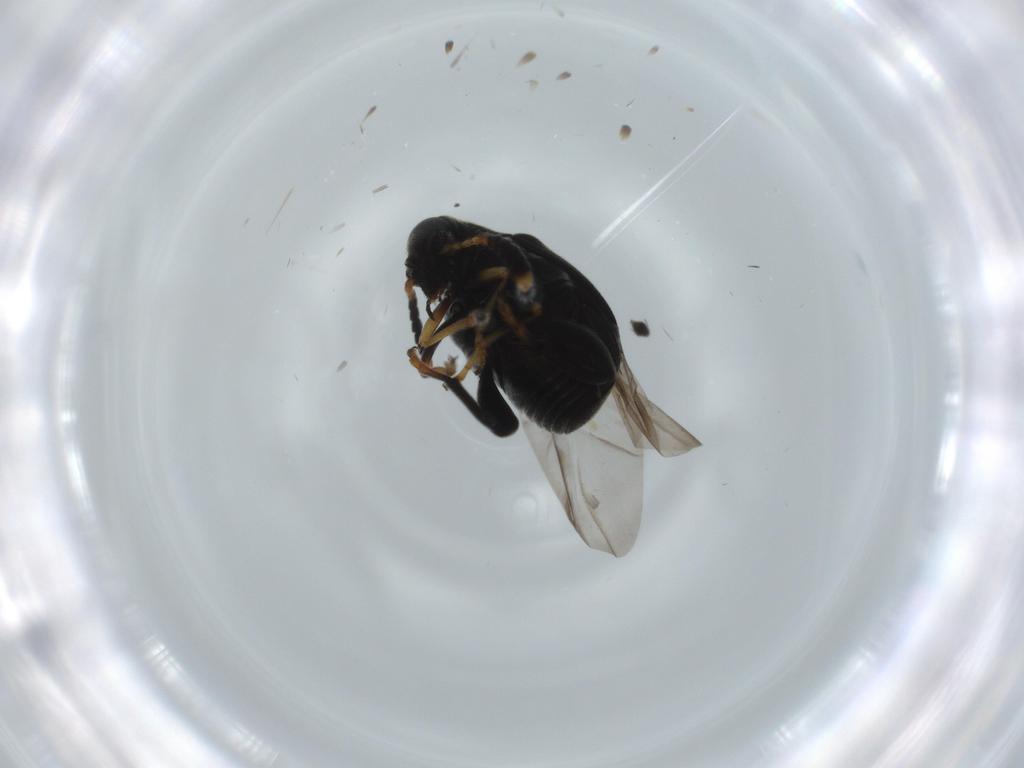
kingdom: Animalia
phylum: Arthropoda
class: Insecta
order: Coleoptera
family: Chrysomelidae
